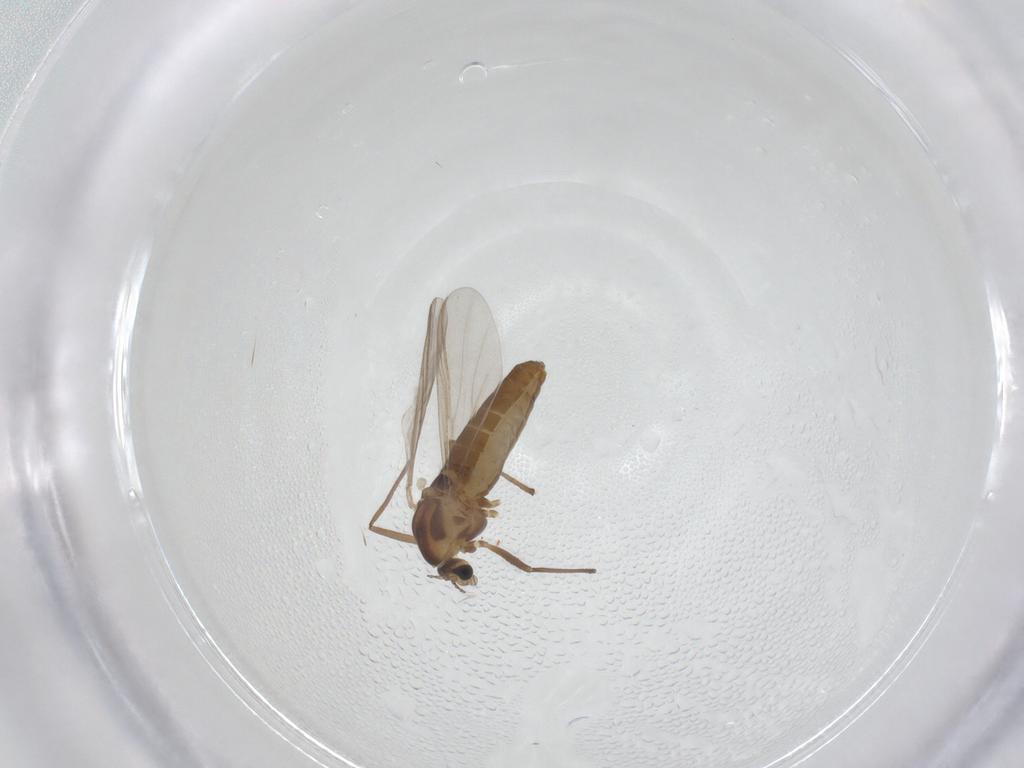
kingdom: Animalia
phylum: Arthropoda
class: Insecta
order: Diptera
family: Chironomidae
